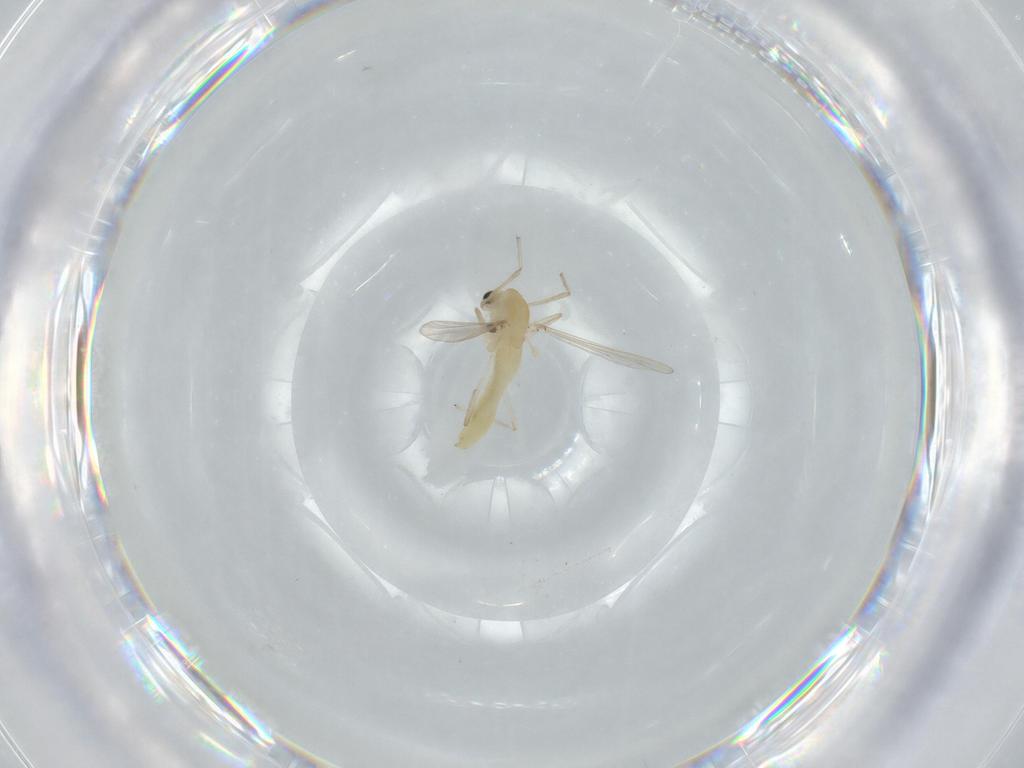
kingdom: Animalia
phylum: Arthropoda
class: Insecta
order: Diptera
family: Chironomidae
